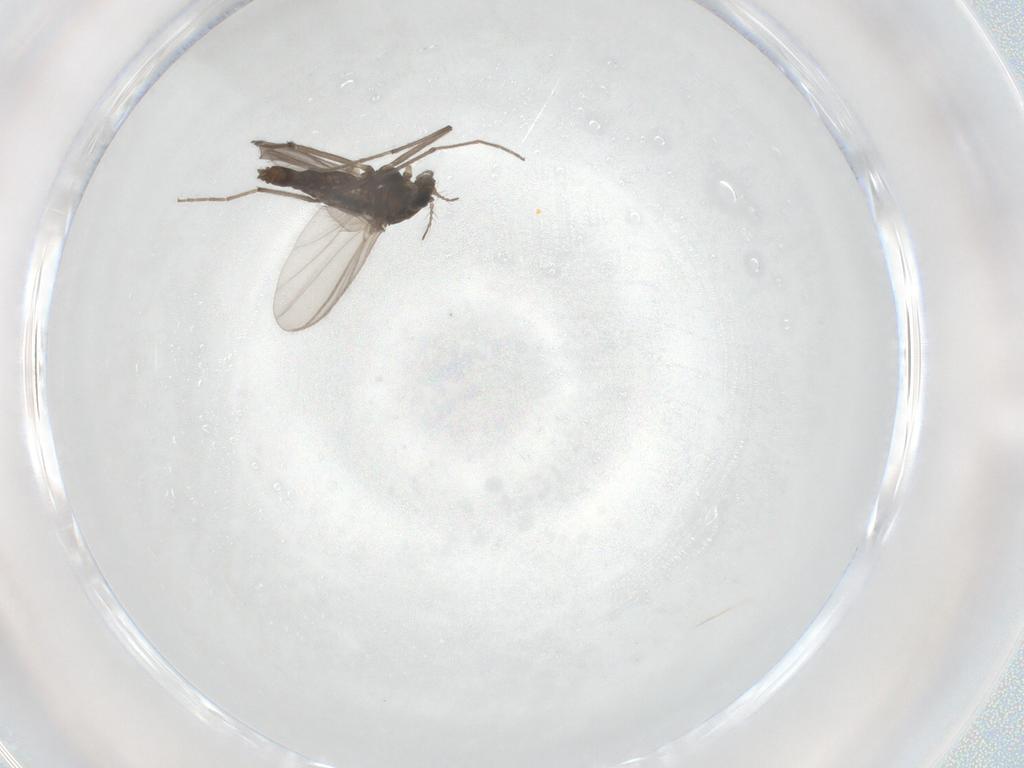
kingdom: Animalia
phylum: Arthropoda
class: Insecta
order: Diptera
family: Chironomidae
